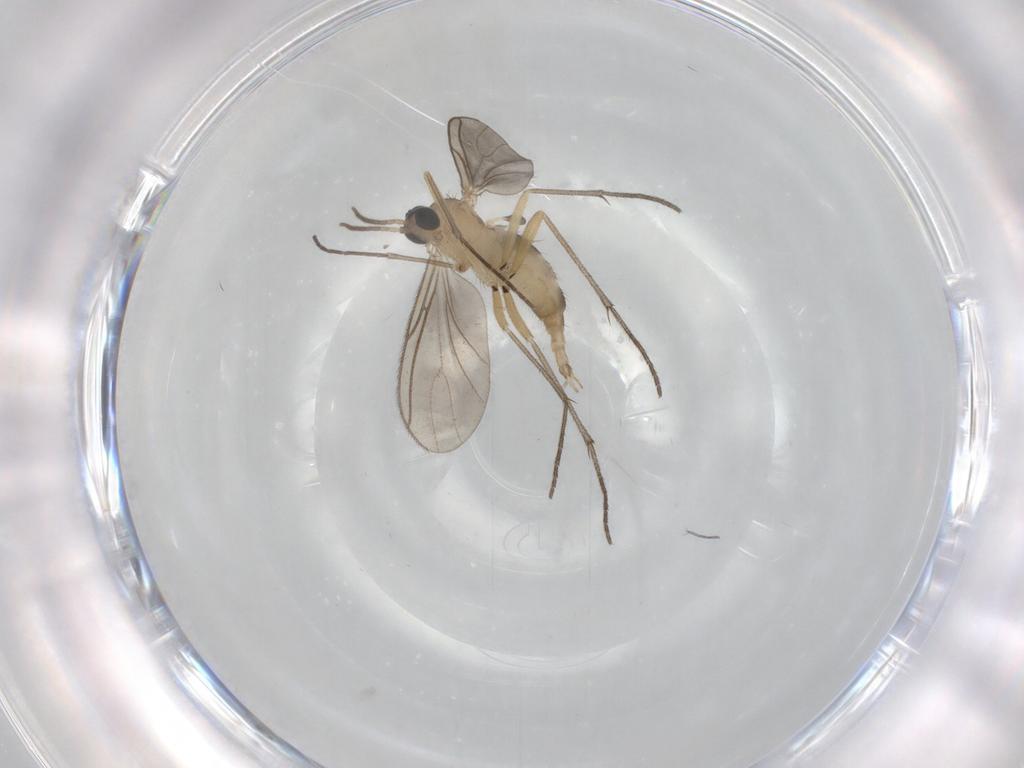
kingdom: Animalia
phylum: Arthropoda
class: Insecta
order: Diptera
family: Sciaridae
